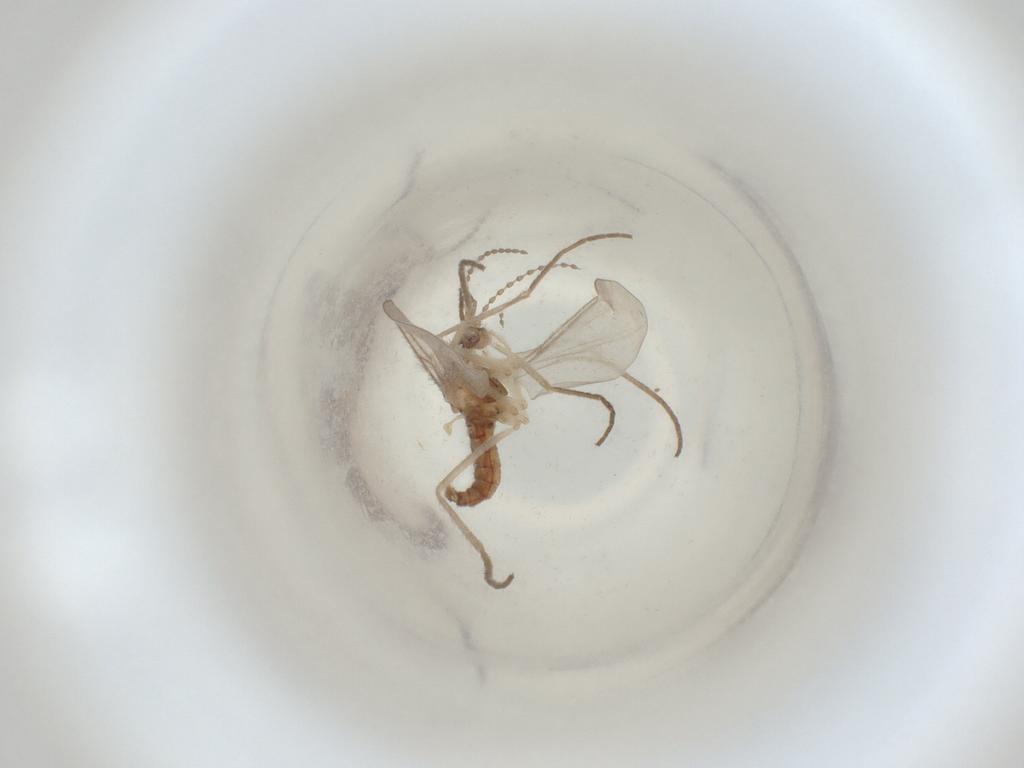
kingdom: Animalia
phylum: Arthropoda
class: Insecta
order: Diptera
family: Cecidomyiidae
